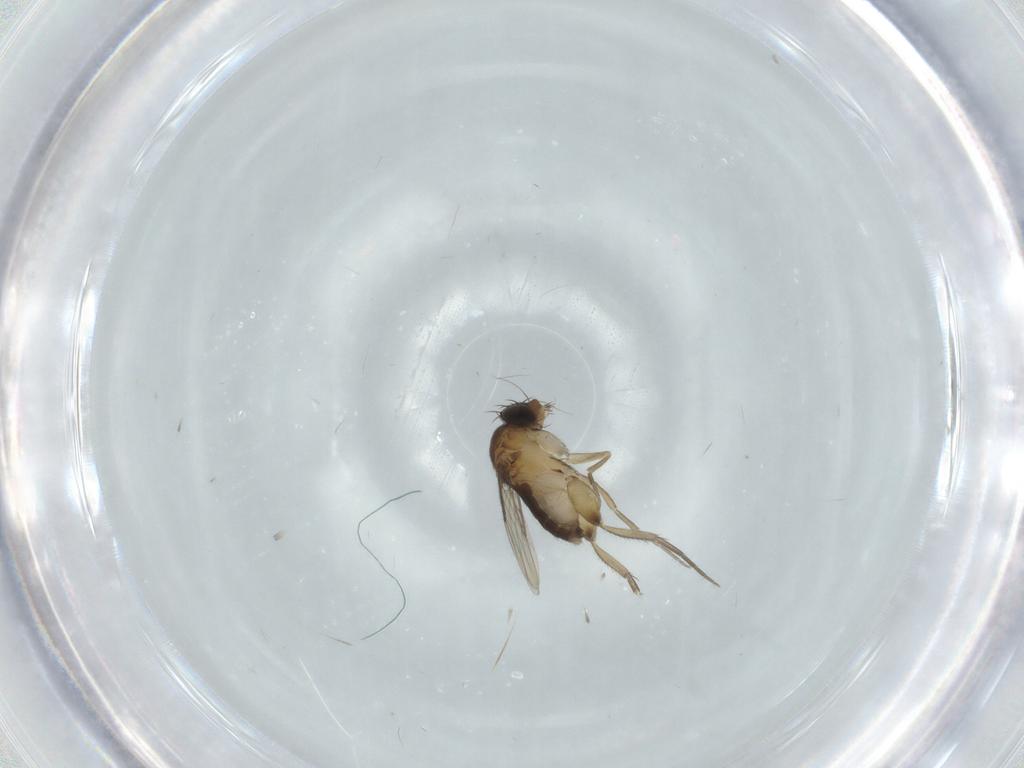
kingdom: Animalia
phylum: Arthropoda
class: Insecta
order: Diptera
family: Phoridae
